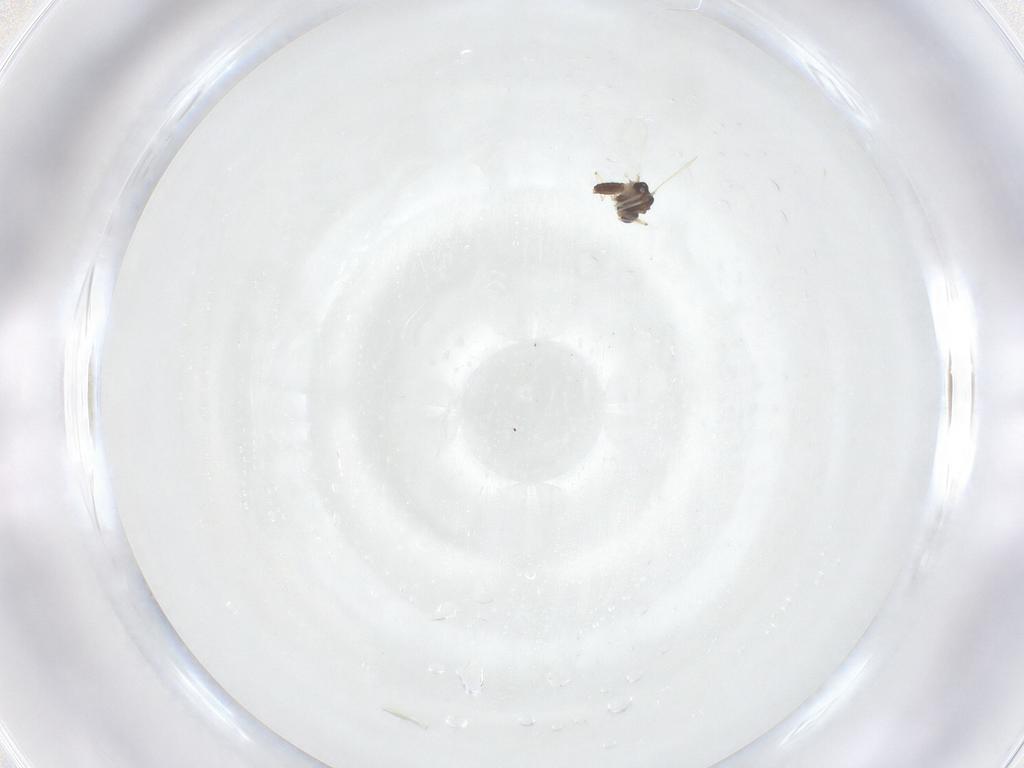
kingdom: Animalia
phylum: Arthropoda
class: Insecta
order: Diptera
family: Chironomidae
